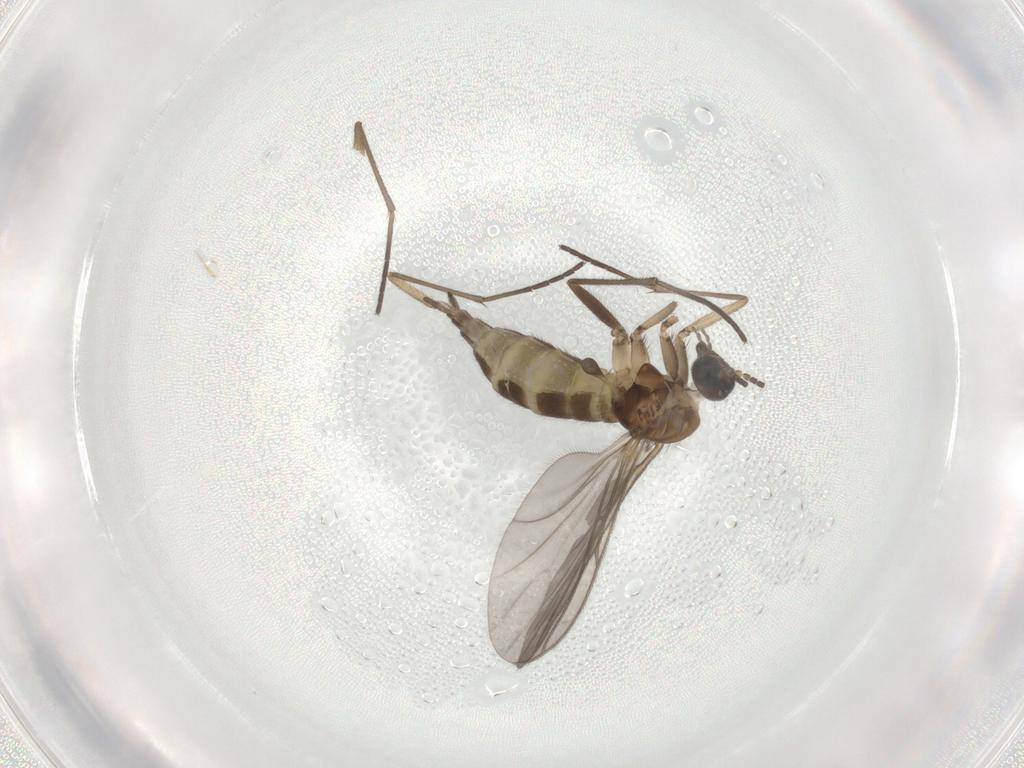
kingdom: Animalia
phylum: Arthropoda
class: Insecta
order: Diptera
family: Sciaridae
